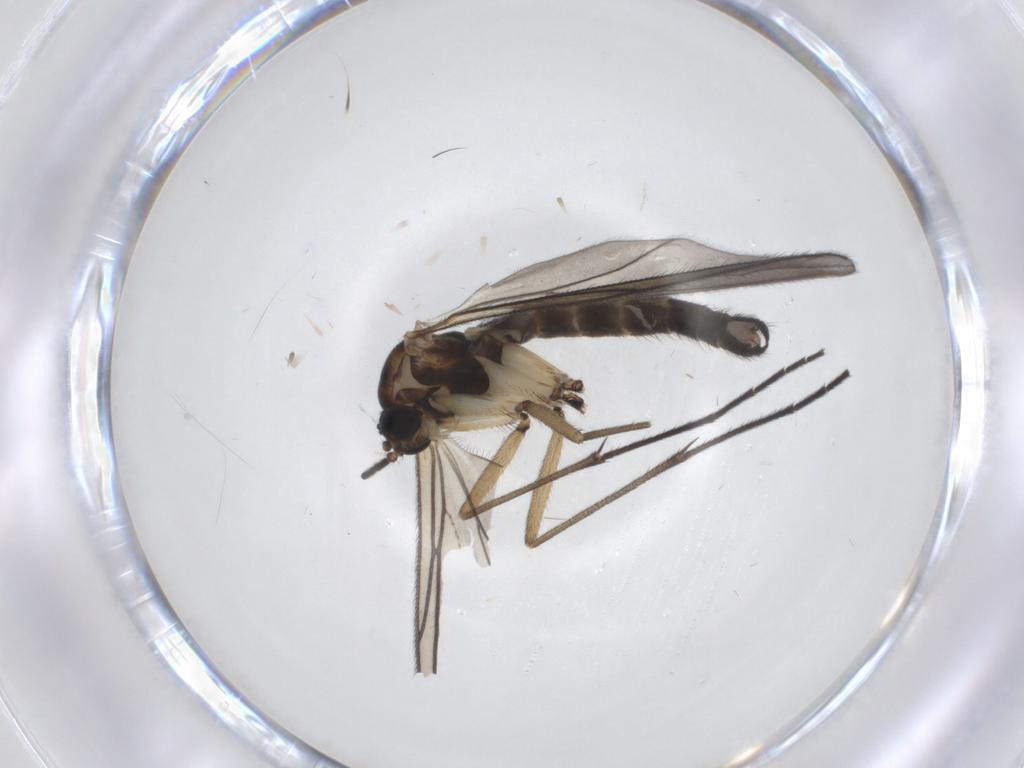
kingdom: Animalia
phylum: Arthropoda
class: Insecta
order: Diptera
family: Sciaridae
